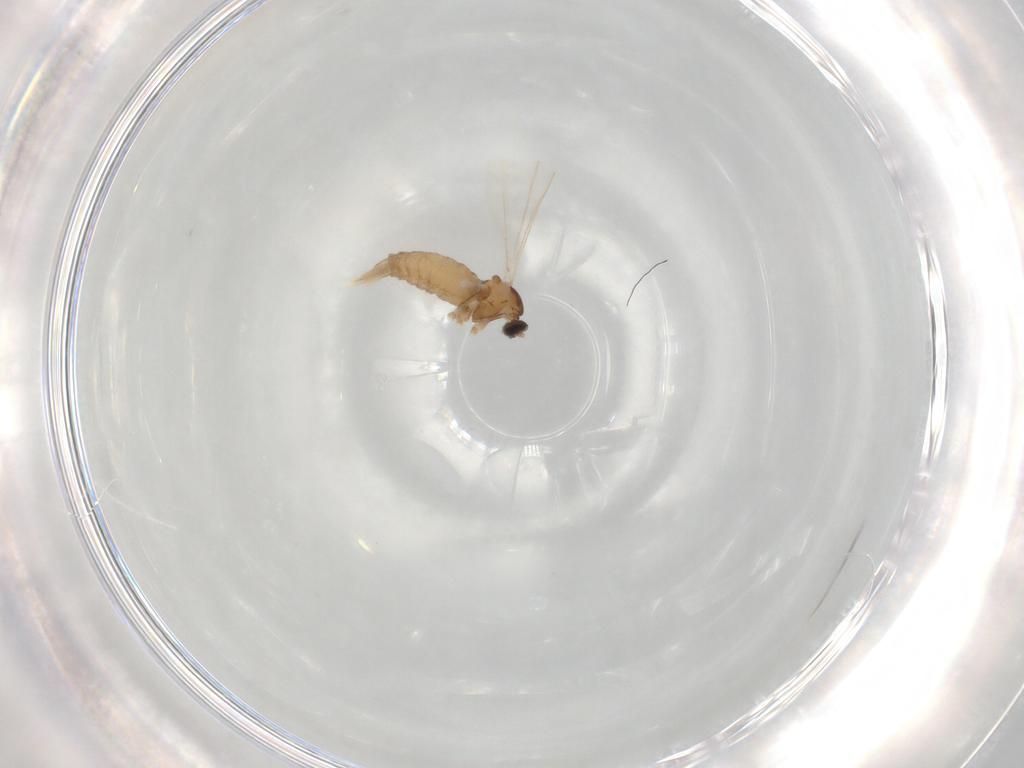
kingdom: Animalia
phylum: Arthropoda
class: Insecta
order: Diptera
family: Cecidomyiidae
